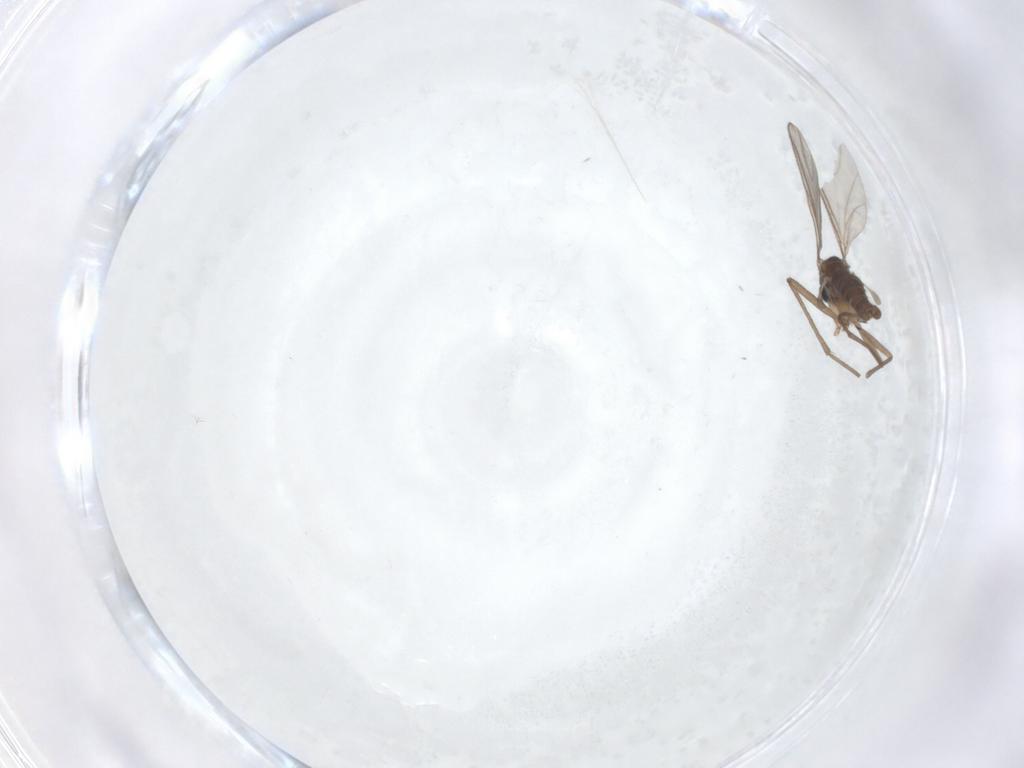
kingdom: Animalia
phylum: Arthropoda
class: Insecta
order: Diptera
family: Sciaridae
